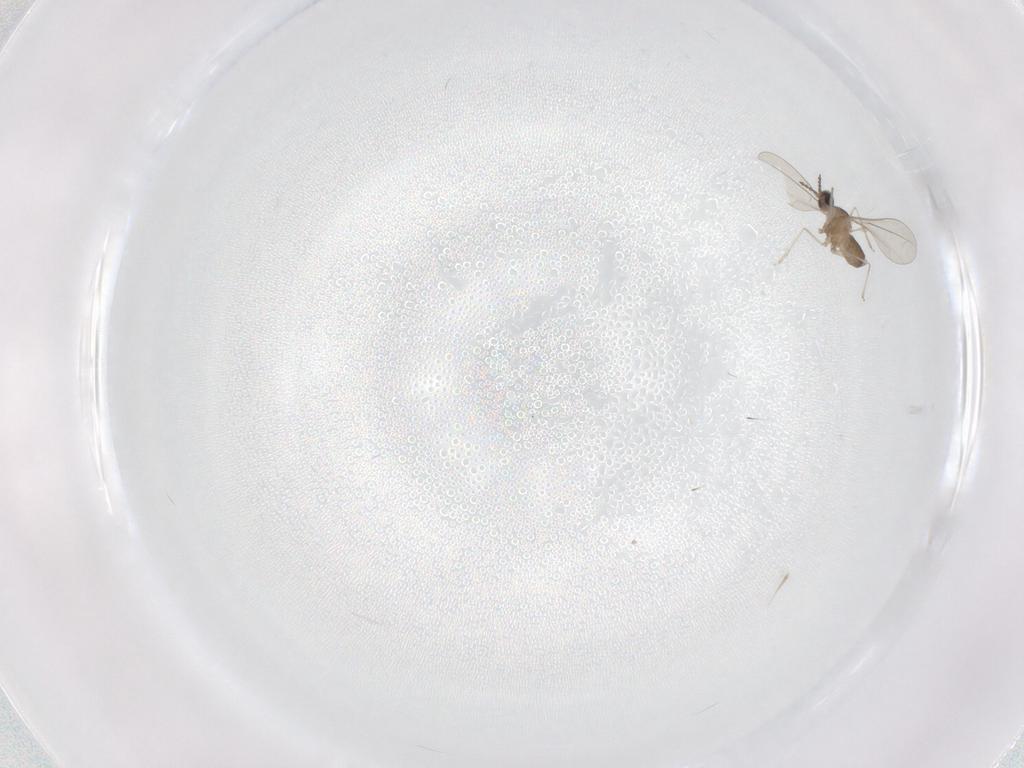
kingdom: Animalia
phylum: Arthropoda
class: Insecta
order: Diptera
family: Cecidomyiidae
